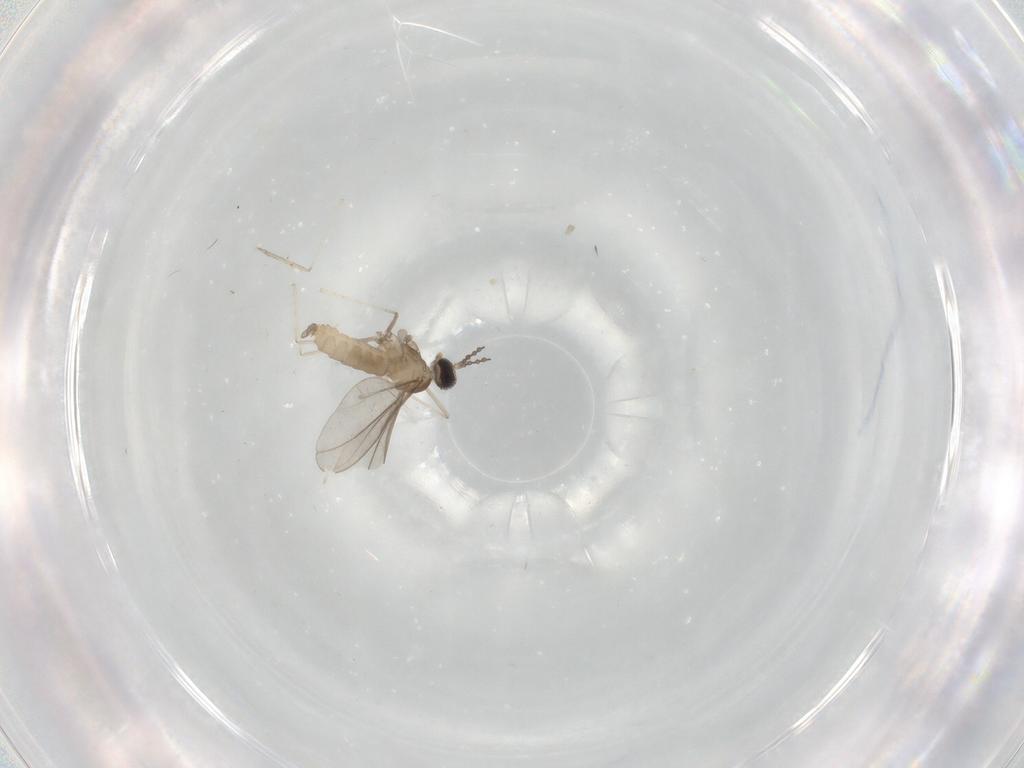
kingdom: Animalia
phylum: Arthropoda
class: Insecta
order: Diptera
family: Cecidomyiidae
